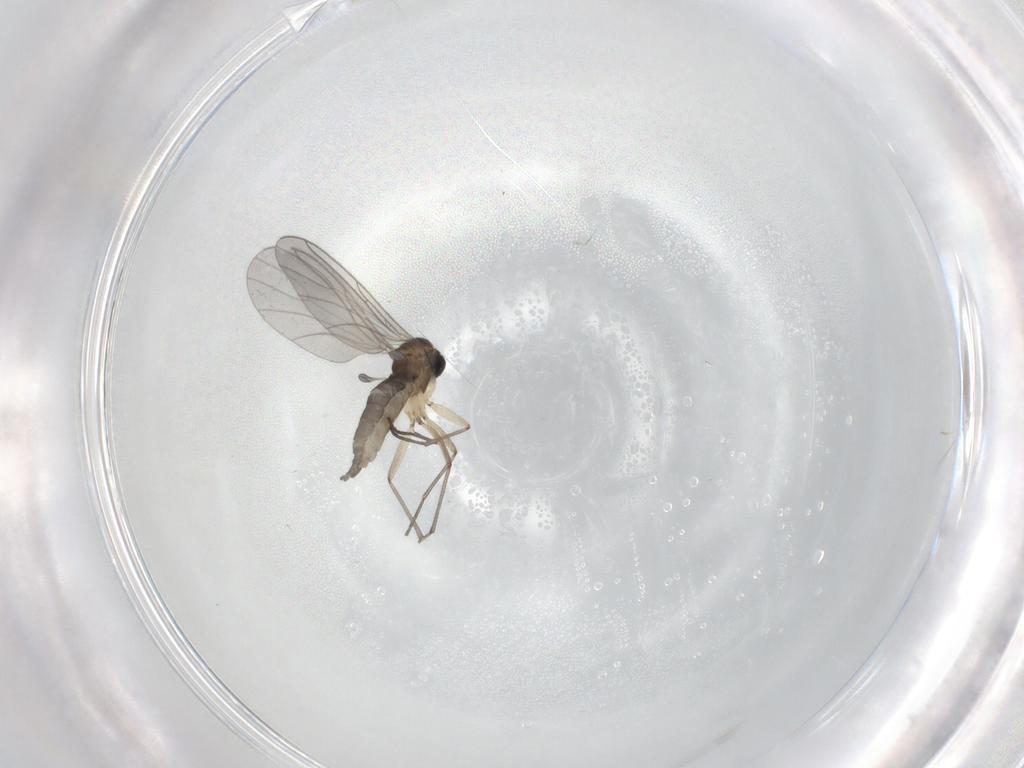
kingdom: Animalia
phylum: Arthropoda
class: Insecta
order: Diptera
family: Sciaridae
